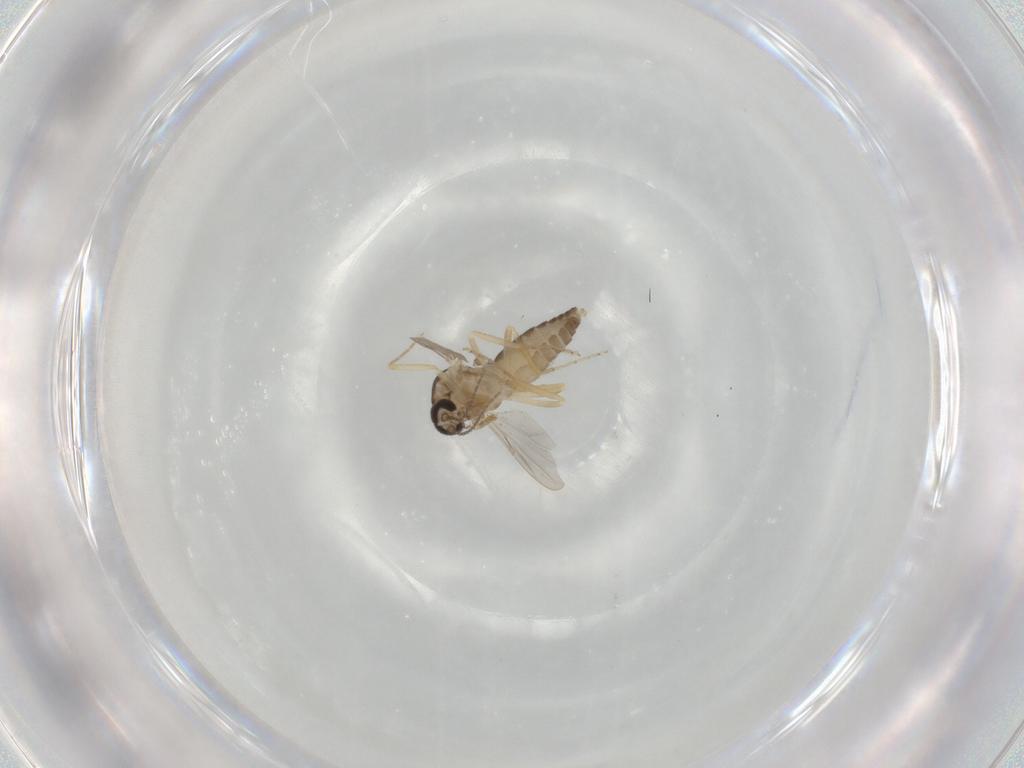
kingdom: Animalia
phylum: Arthropoda
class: Insecta
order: Diptera
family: Ceratopogonidae
